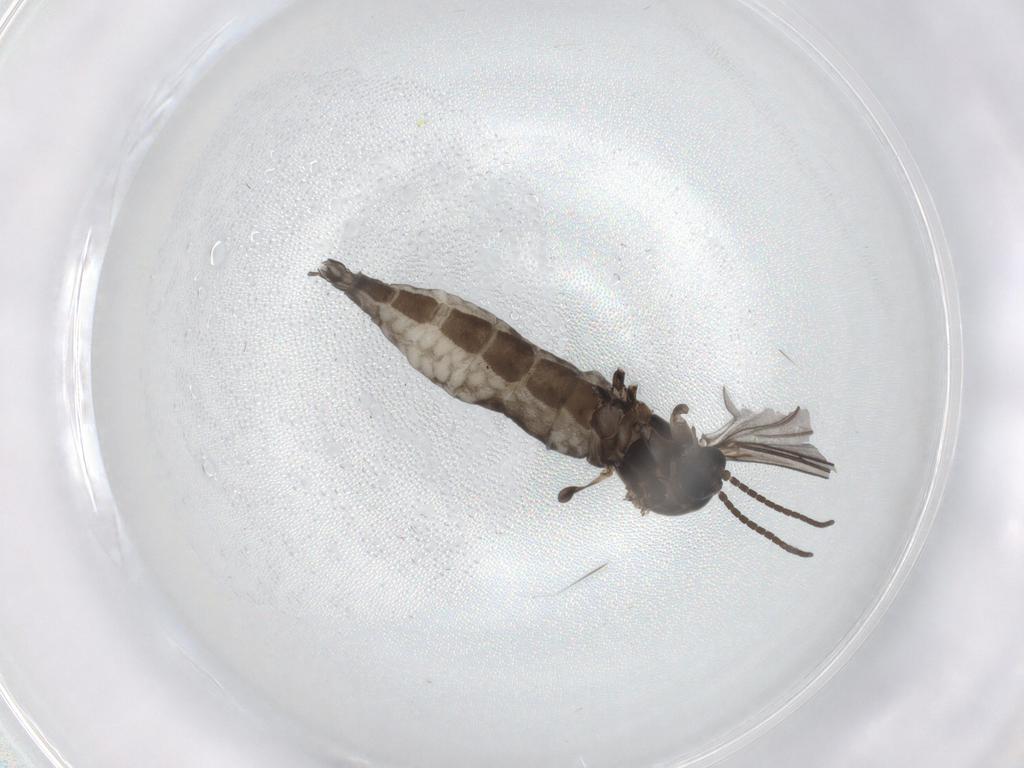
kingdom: Animalia
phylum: Arthropoda
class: Insecta
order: Diptera
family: Sciaridae
